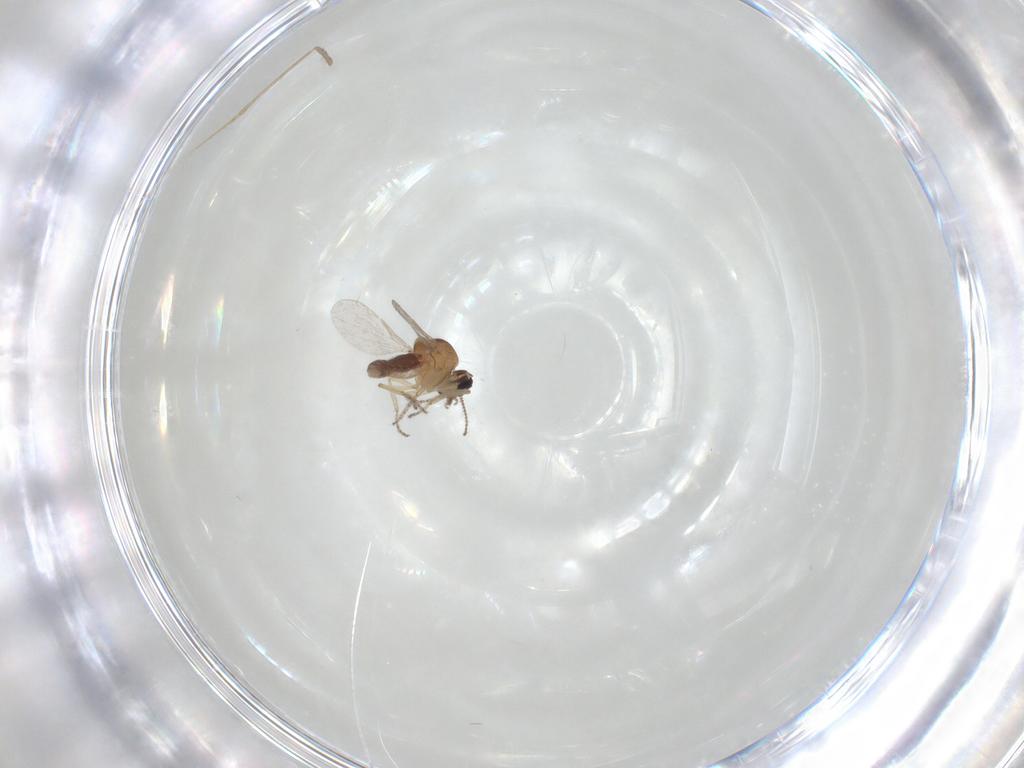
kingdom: Animalia
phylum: Arthropoda
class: Insecta
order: Diptera
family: Cecidomyiidae
